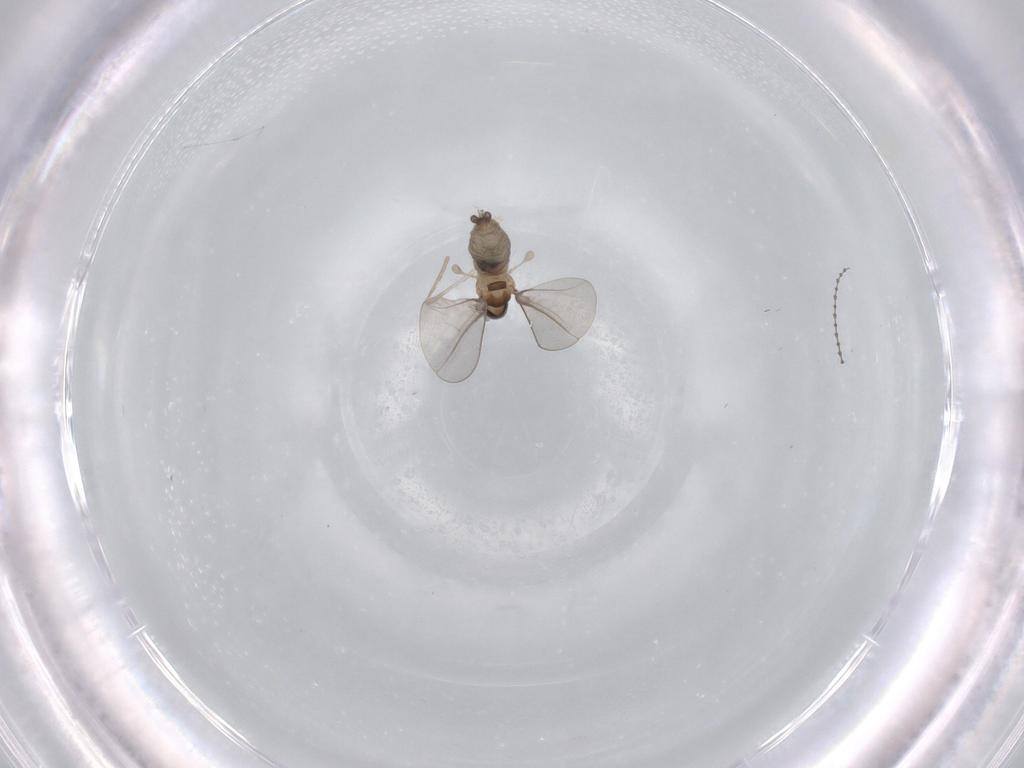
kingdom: Animalia
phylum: Arthropoda
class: Insecta
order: Diptera
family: Cecidomyiidae
